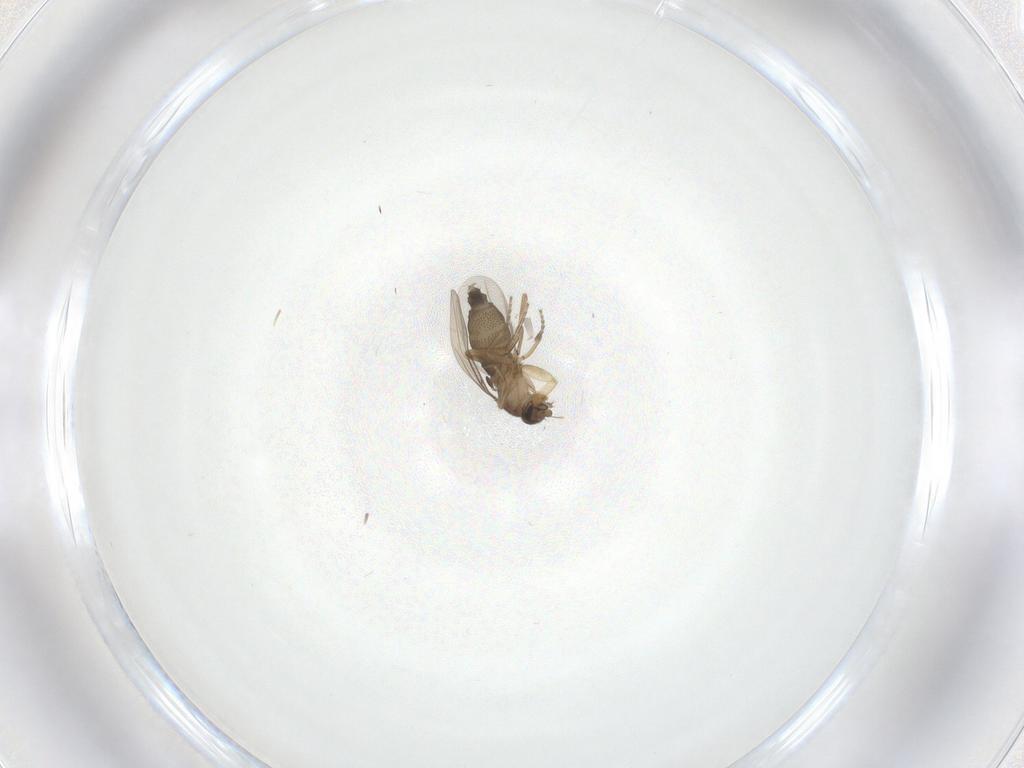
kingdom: Animalia
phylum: Arthropoda
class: Insecta
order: Diptera
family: Phoridae
